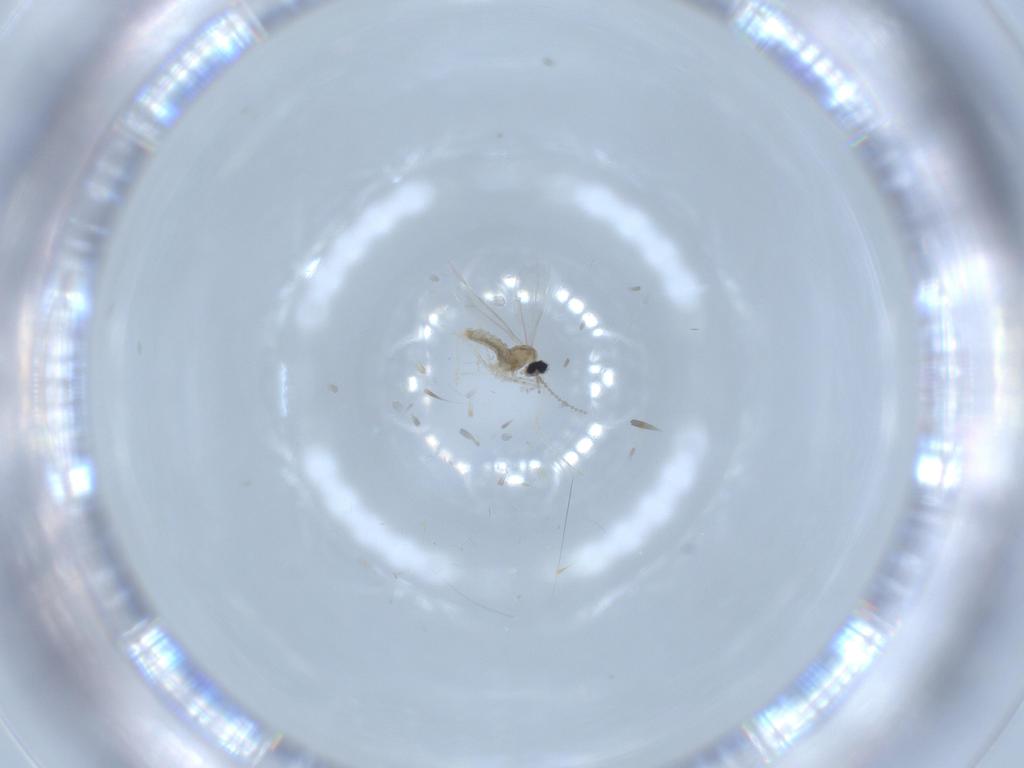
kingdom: Animalia
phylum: Arthropoda
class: Insecta
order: Diptera
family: Cecidomyiidae
